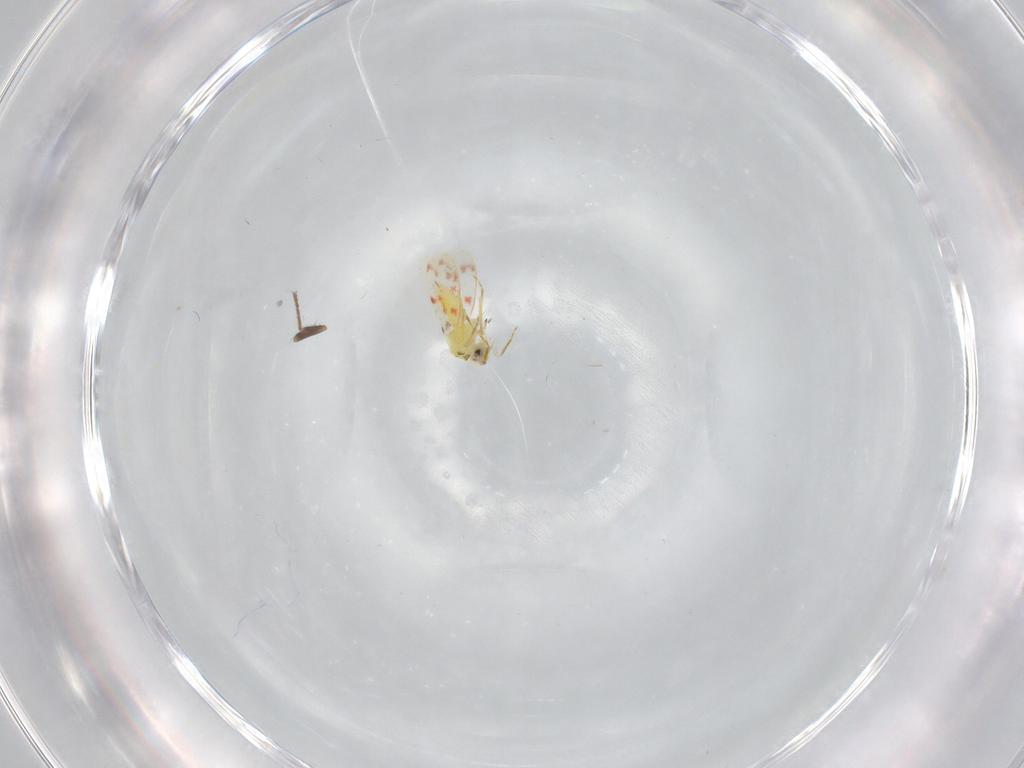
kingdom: Animalia
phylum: Arthropoda
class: Insecta
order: Hemiptera
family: Aleyrodidae
